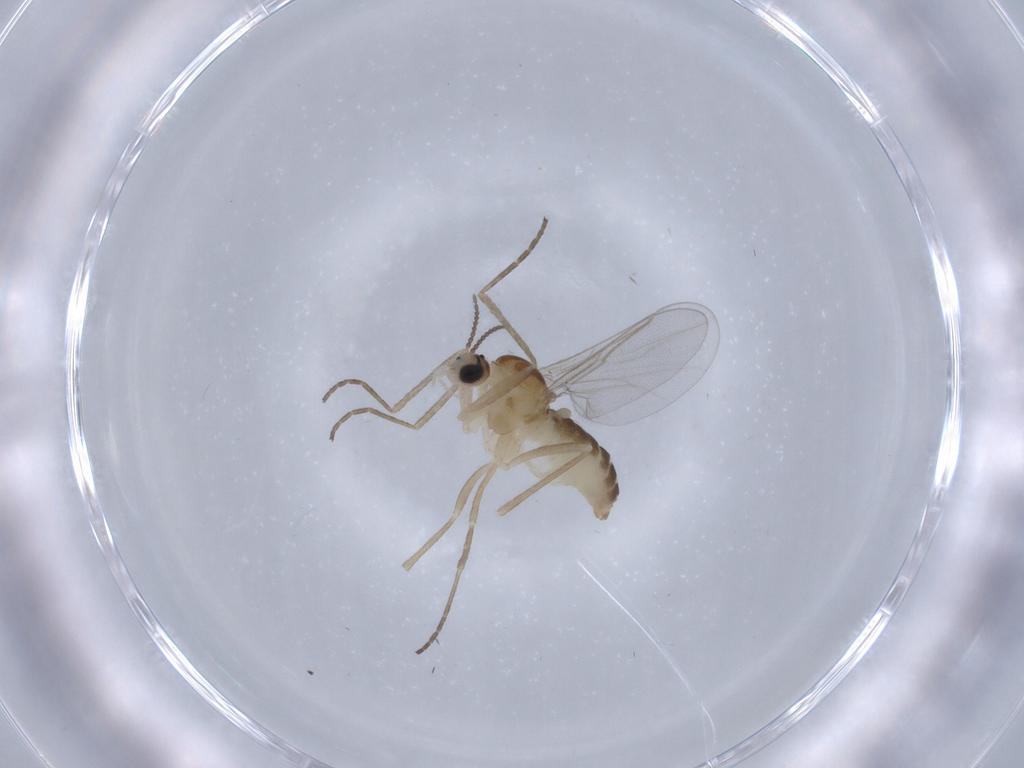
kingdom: Animalia
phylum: Arthropoda
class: Insecta
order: Diptera
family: Cecidomyiidae
